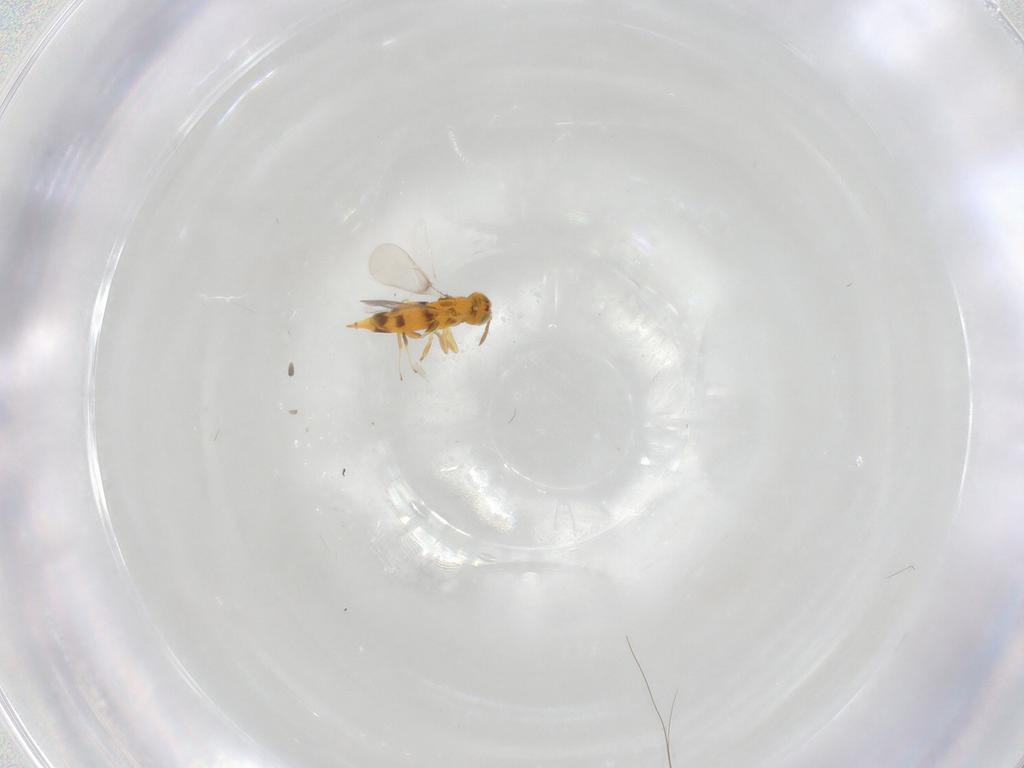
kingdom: Animalia
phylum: Arthropoda
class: Insecta
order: Hymenoptera
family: Aphelinidae
